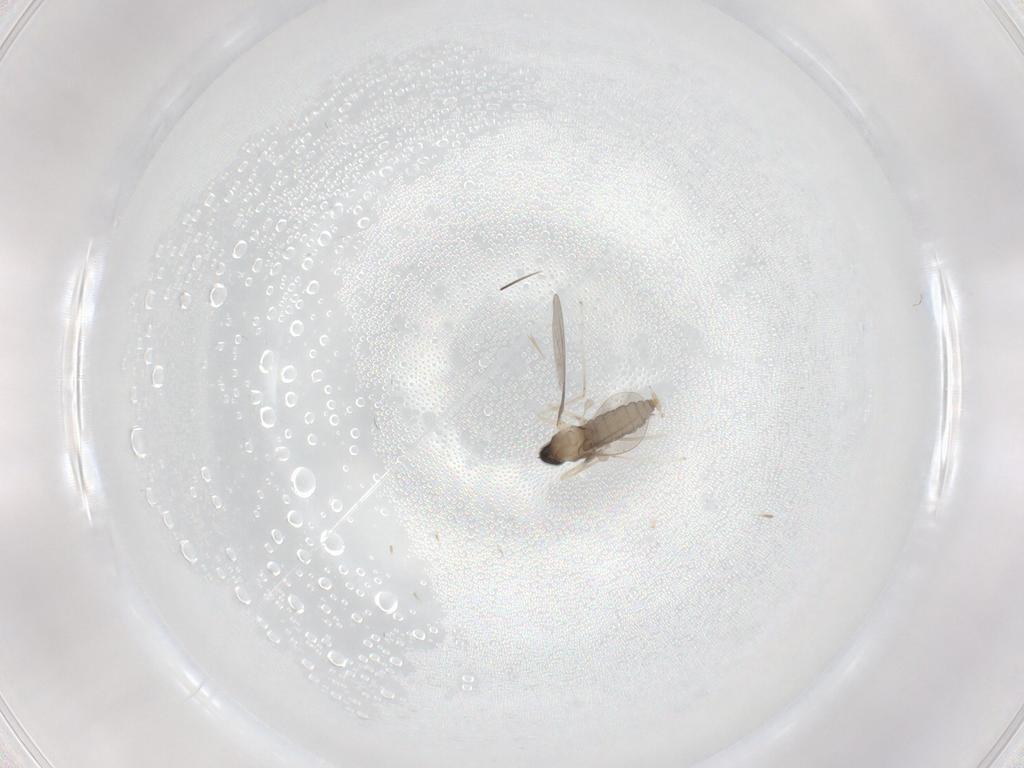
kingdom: Animalia
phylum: Arthropoda
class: Insecta
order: Diptera
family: Cecidomyiidae
